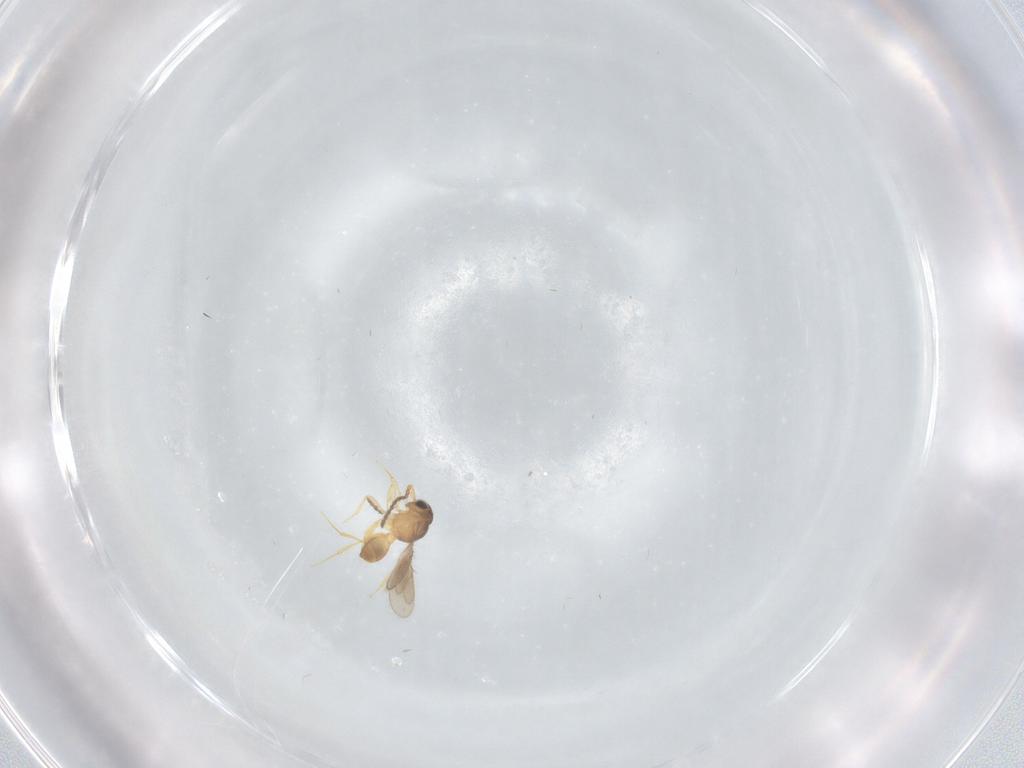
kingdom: Animalia
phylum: Arthropoda
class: Insecta
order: Hymenoptera
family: Scelionidae
